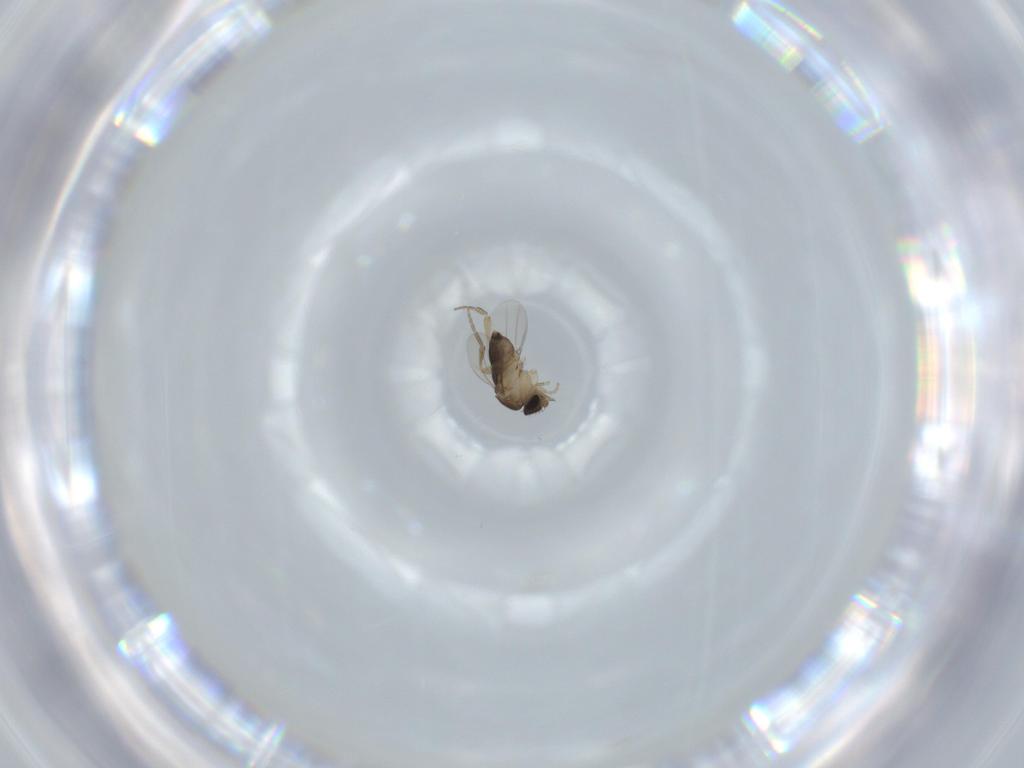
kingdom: Animalia
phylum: Arthropoda
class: Insecta
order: Diptera
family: Phoridae
